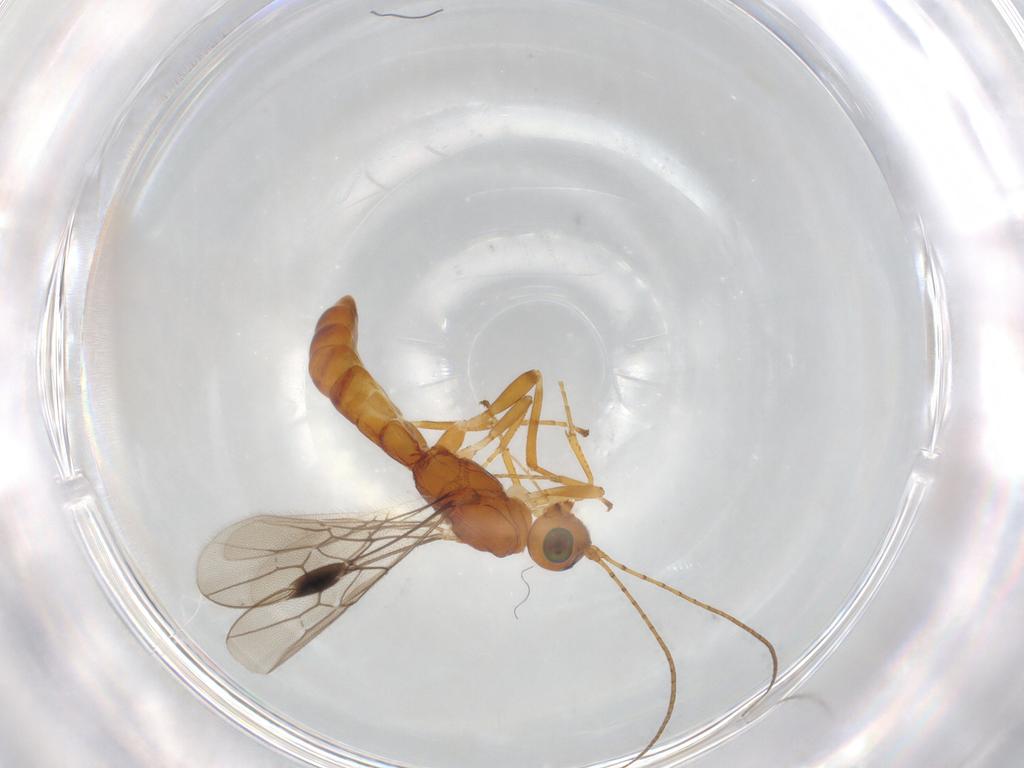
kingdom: Animalia
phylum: Arthropoda
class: Insecta
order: Hymenoptera
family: Braconidae
